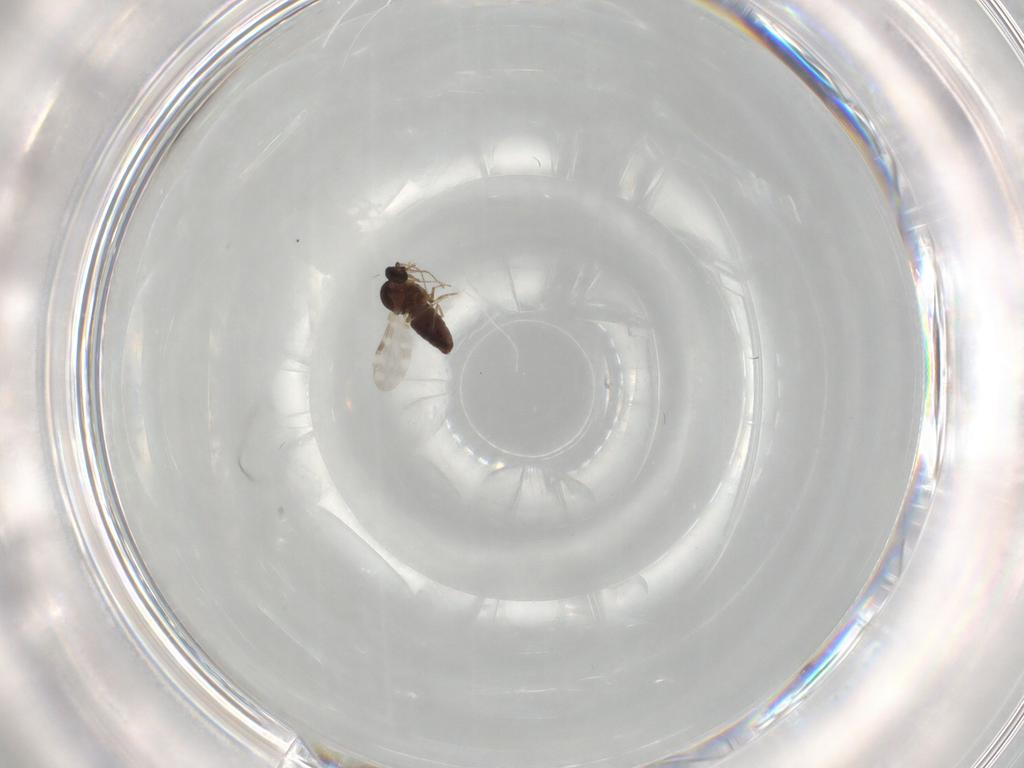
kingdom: Animalia
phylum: Arthropoda
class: Insecta
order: Diptera
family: Ceratopogonidae
